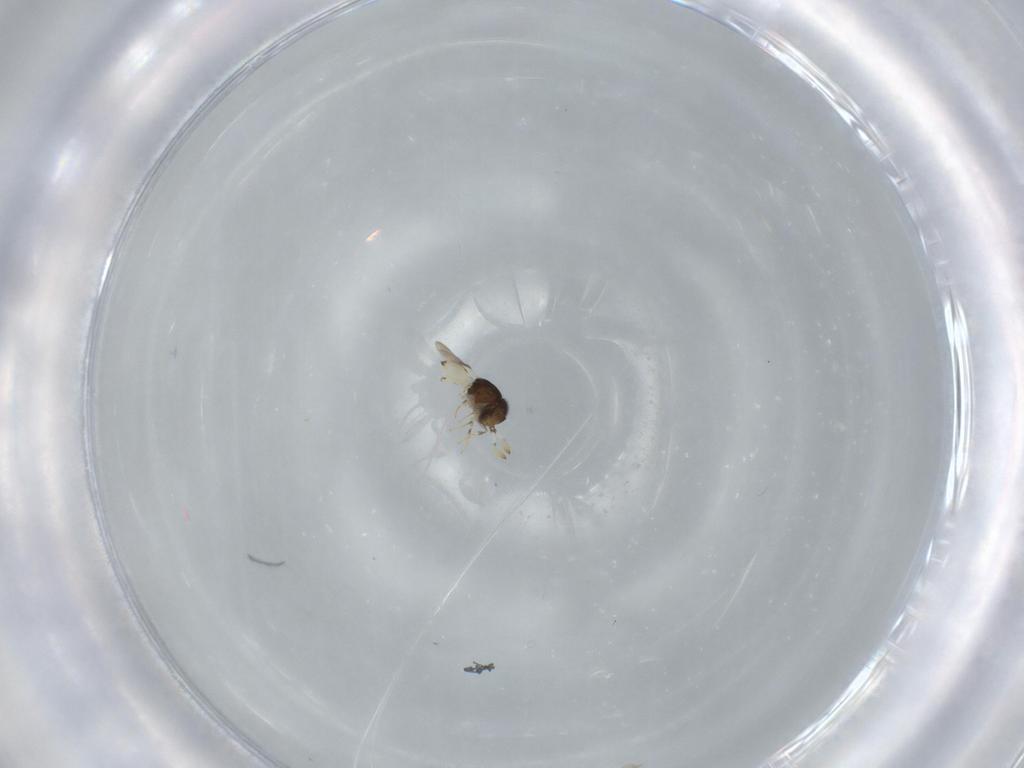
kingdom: Animalia
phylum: Arthropoda
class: Insecta
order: Hymenoptera
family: Scelionidae
